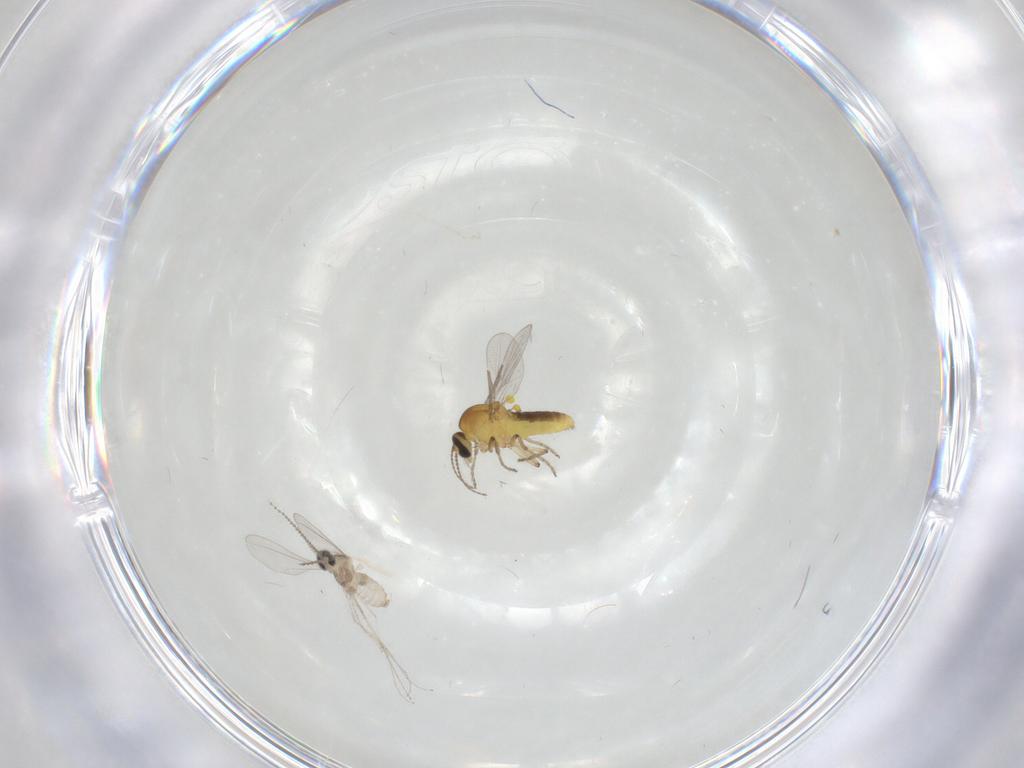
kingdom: Animalia
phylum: Arthropoda
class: Insecta
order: Diptera
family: Ceratopogonidae
